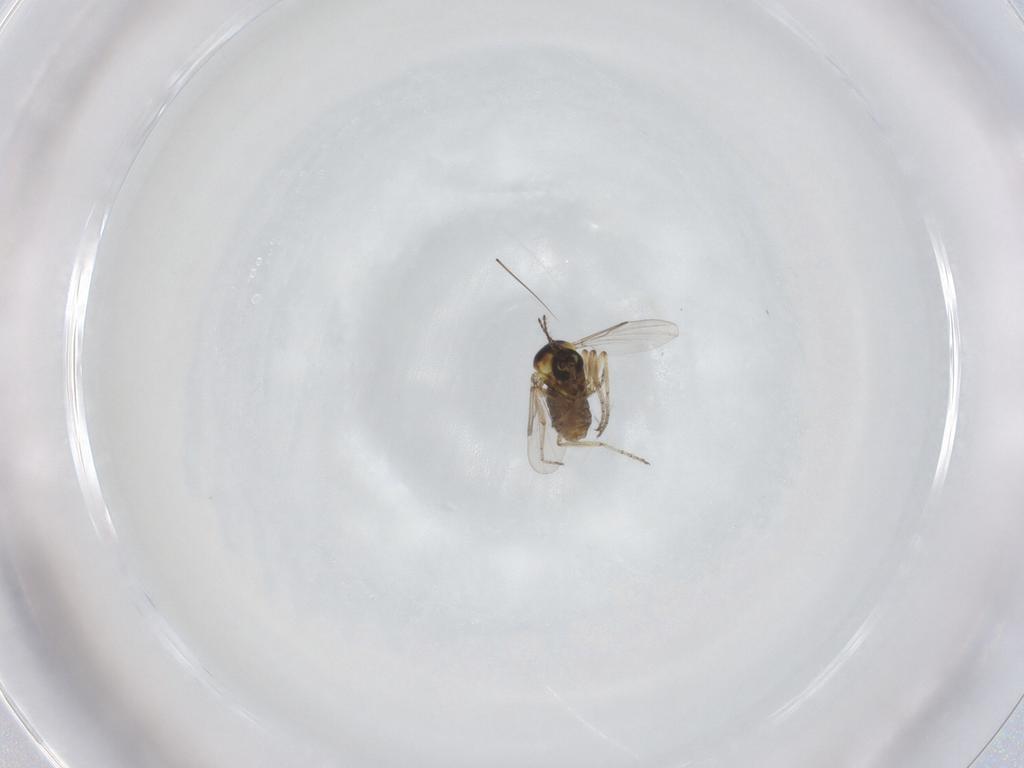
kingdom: Animalia
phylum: Arthropoda
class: Insecta
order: Diptera
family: Ceratopogonidae
